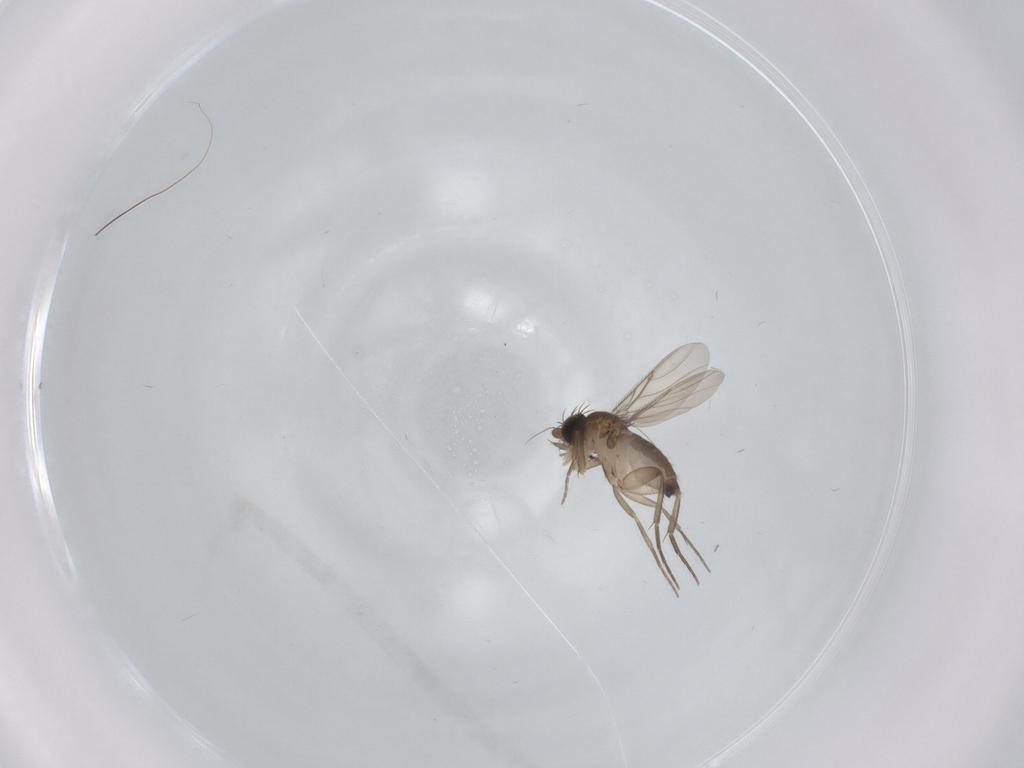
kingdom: Animalia
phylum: Arthropoda
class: Insecta
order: Diptera
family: Phoridae
